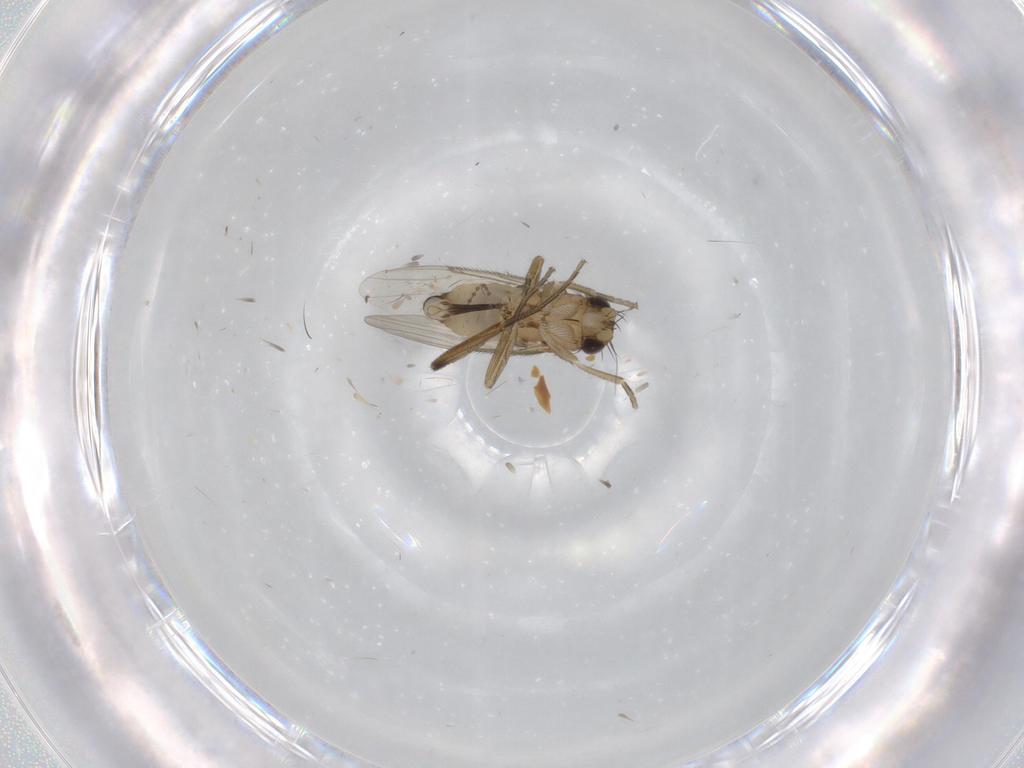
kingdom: Animalia
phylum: Arthropoda
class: Insecta
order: Diptera
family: Phoridae
